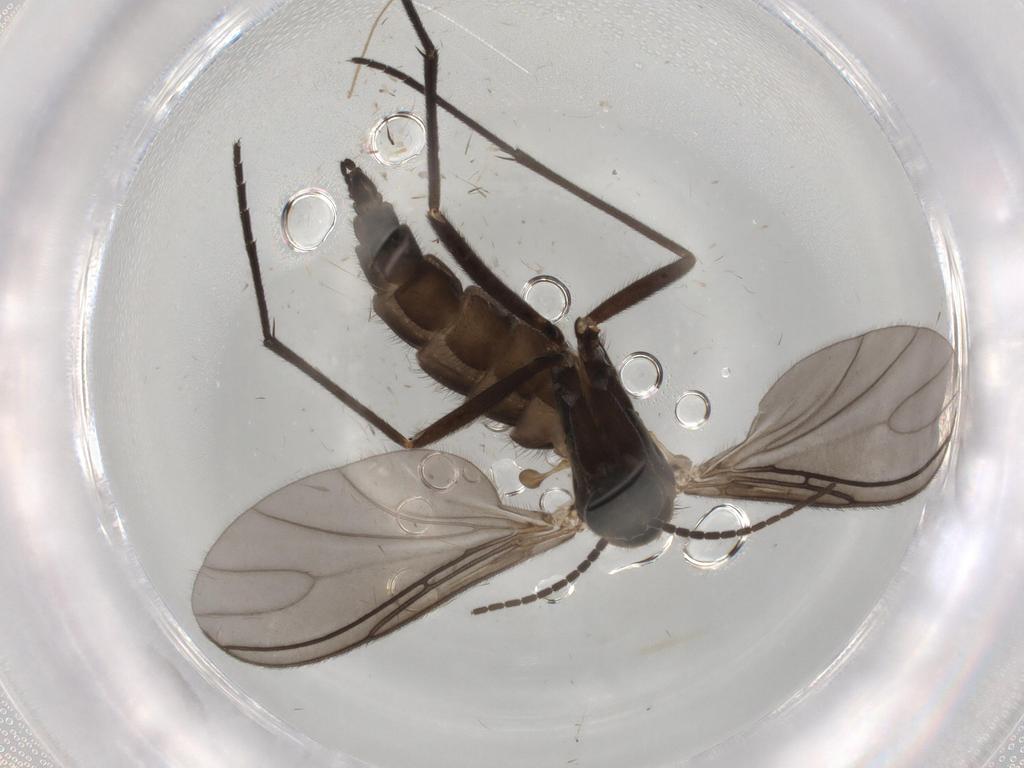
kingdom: Animalia
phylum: Arthropoda
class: Insecta
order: Diptera
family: Sciaridae
